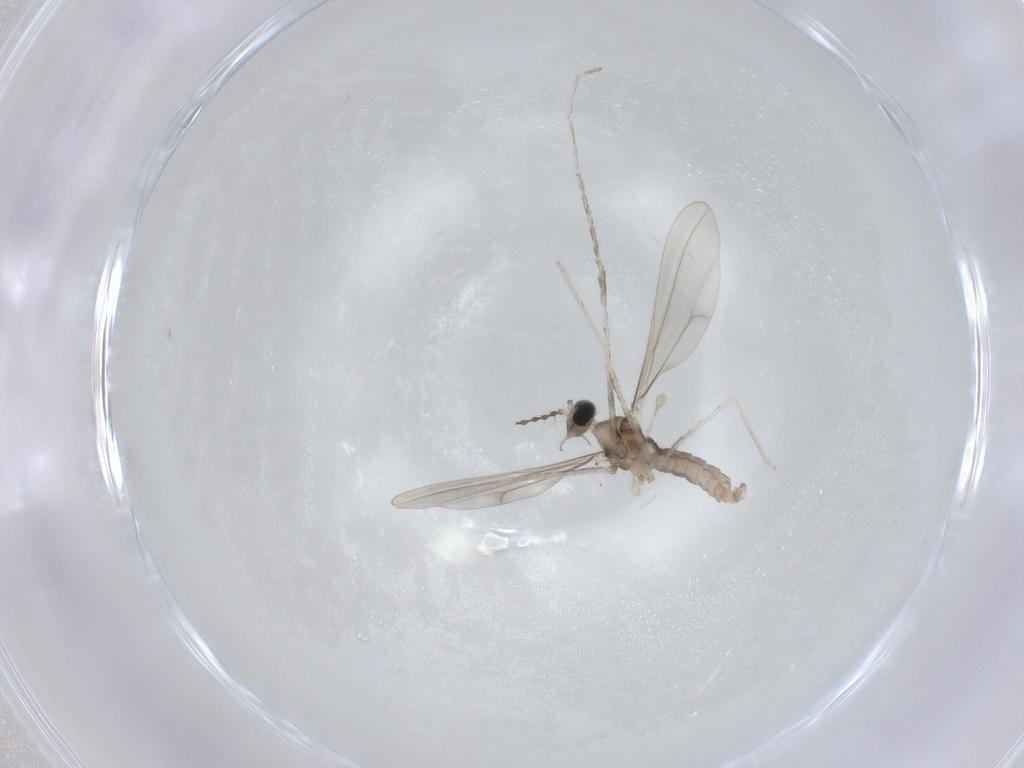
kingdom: Animalia
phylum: Arthropoda
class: Insecta
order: Diptera
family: Cecidomyiidae
